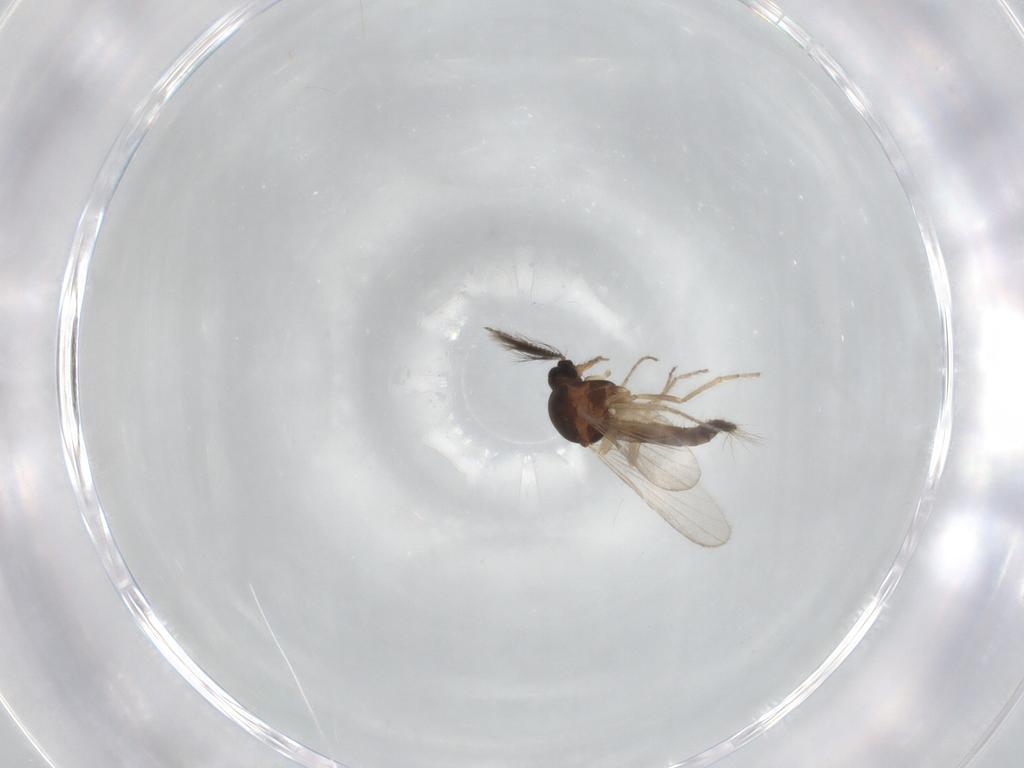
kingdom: Animalia
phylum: Arthropoda
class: Insecta
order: Diptera
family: Ceratopogonidae
